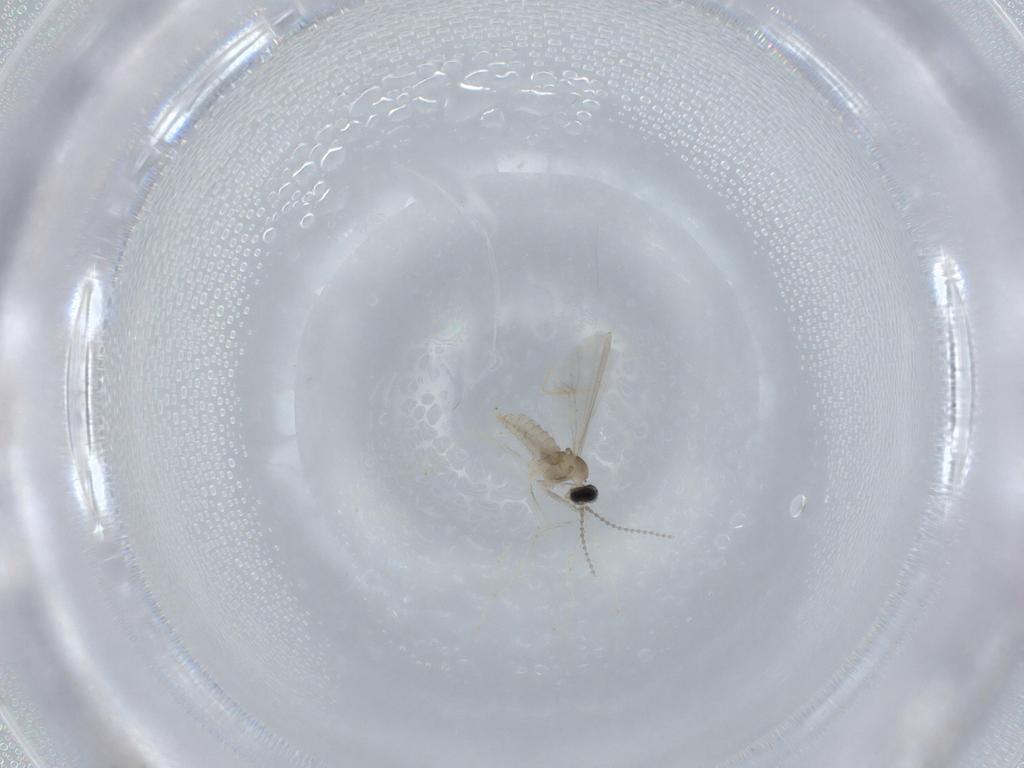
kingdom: Animalia
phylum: Arthropoda
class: Insecta
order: Diptera
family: Cecidomyiidae
